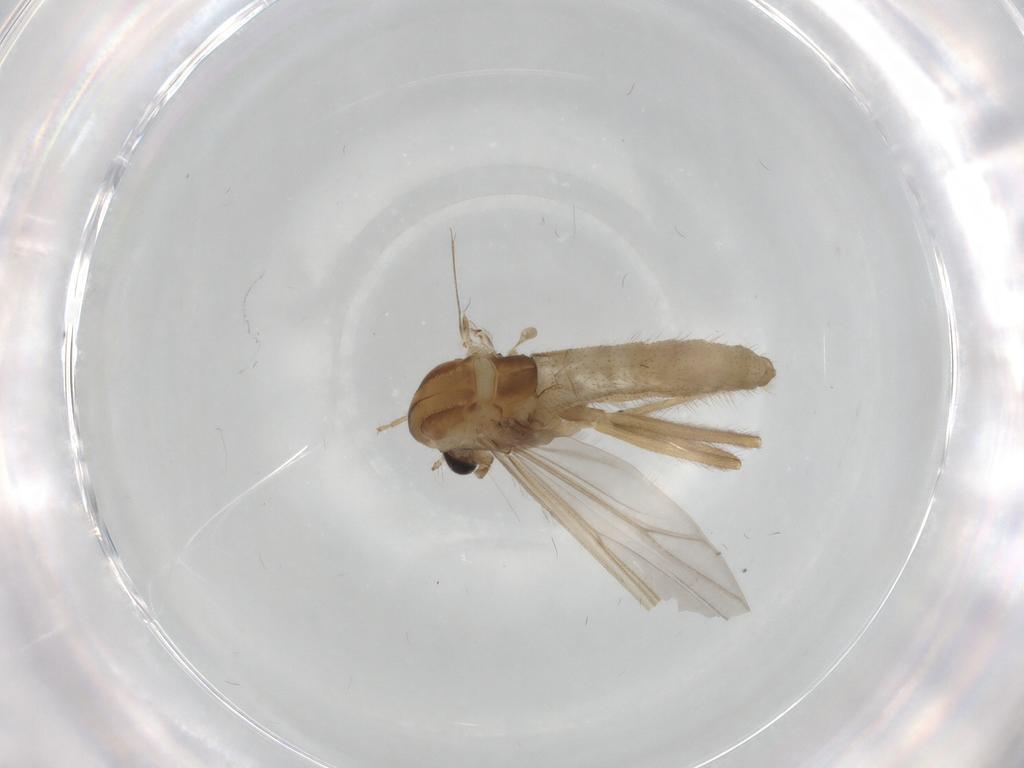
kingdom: Animalia
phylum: Arthropoda
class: Insecta
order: Diptera
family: Chironomidae
